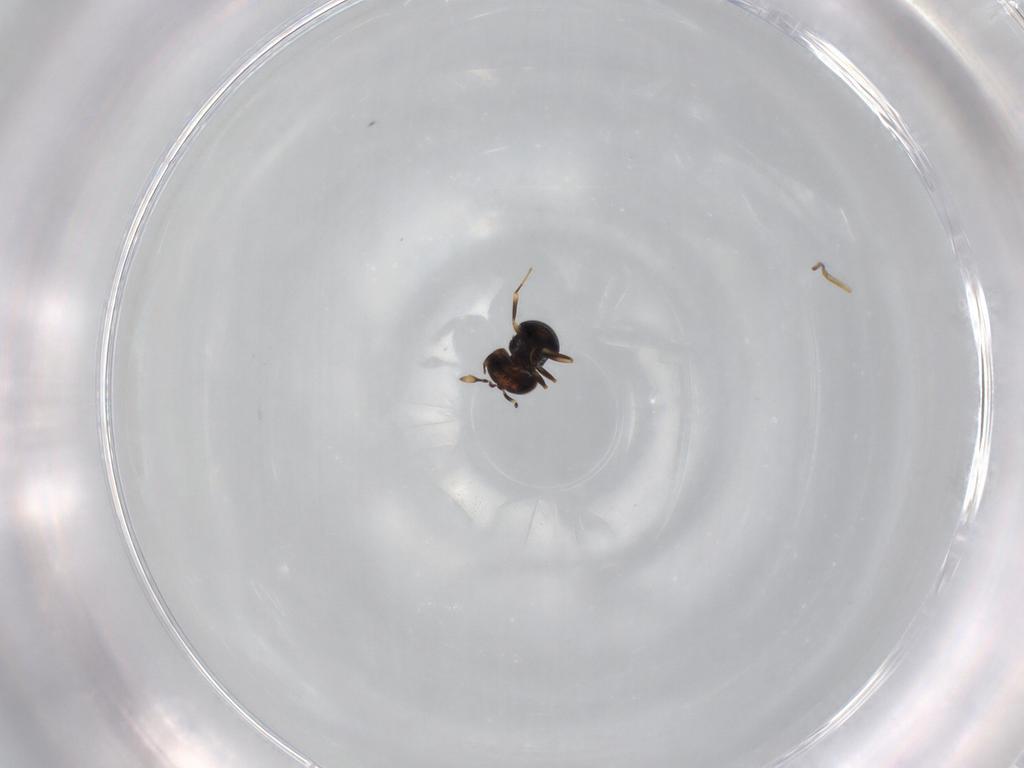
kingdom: Animalia
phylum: Arthropoda
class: Insecta
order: Hymenoptera
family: Scelionidae
